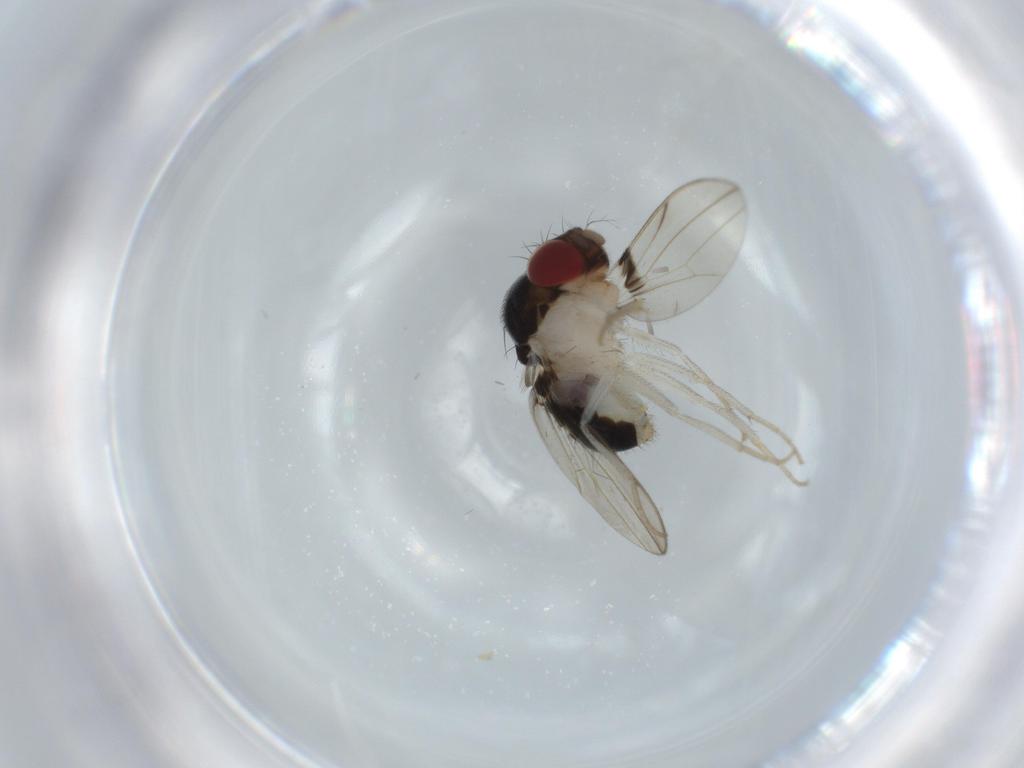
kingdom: Animalia
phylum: Arthropoda
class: Insecta
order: Diptera
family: Drosophilidae
